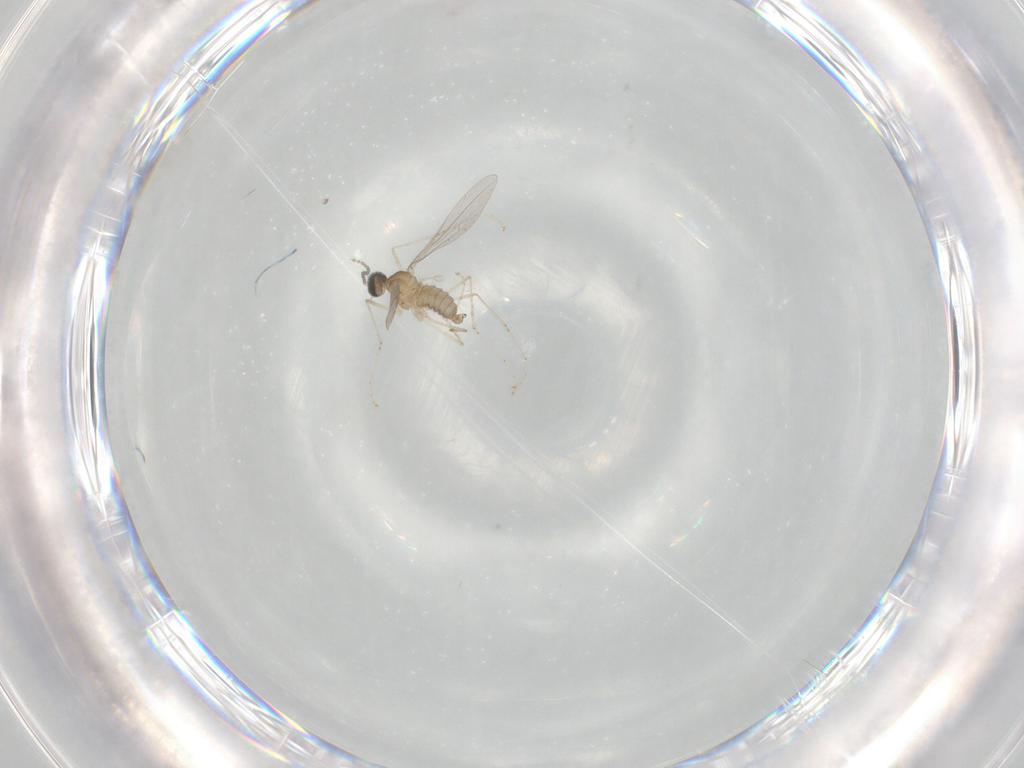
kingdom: Animalia
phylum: Arthropoda
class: Insecta
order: Diptera
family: Cecidomyiidae
